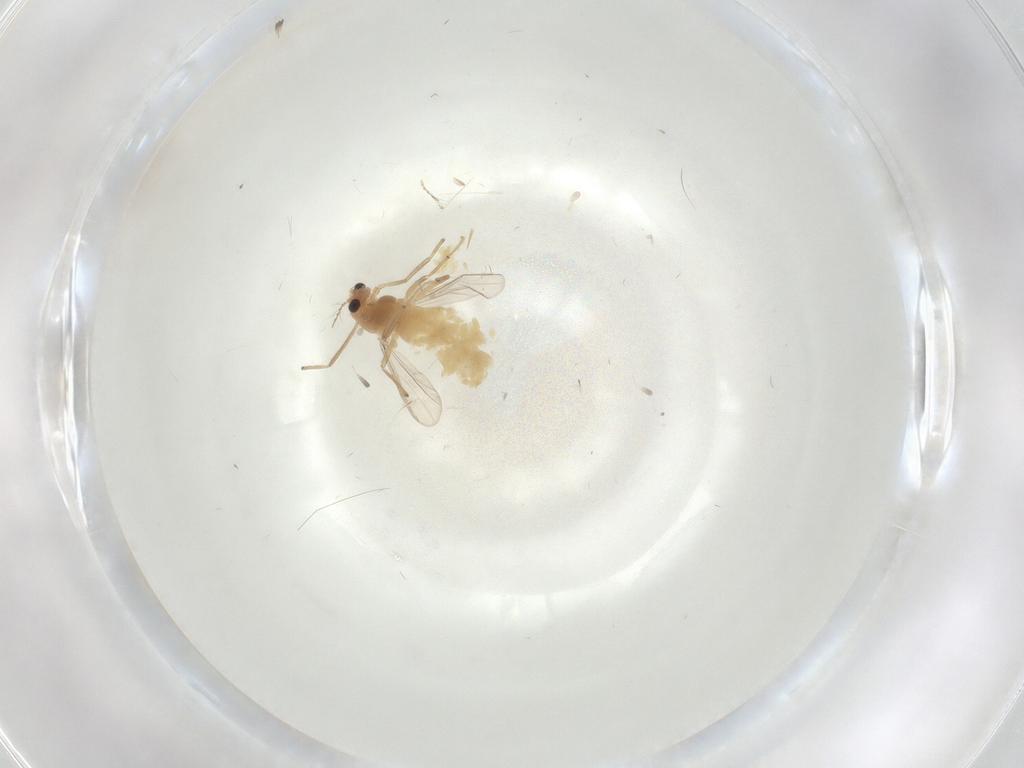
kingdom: Animalia
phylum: Arthropoda
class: Insecta
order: Diptera
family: Chironomidae
